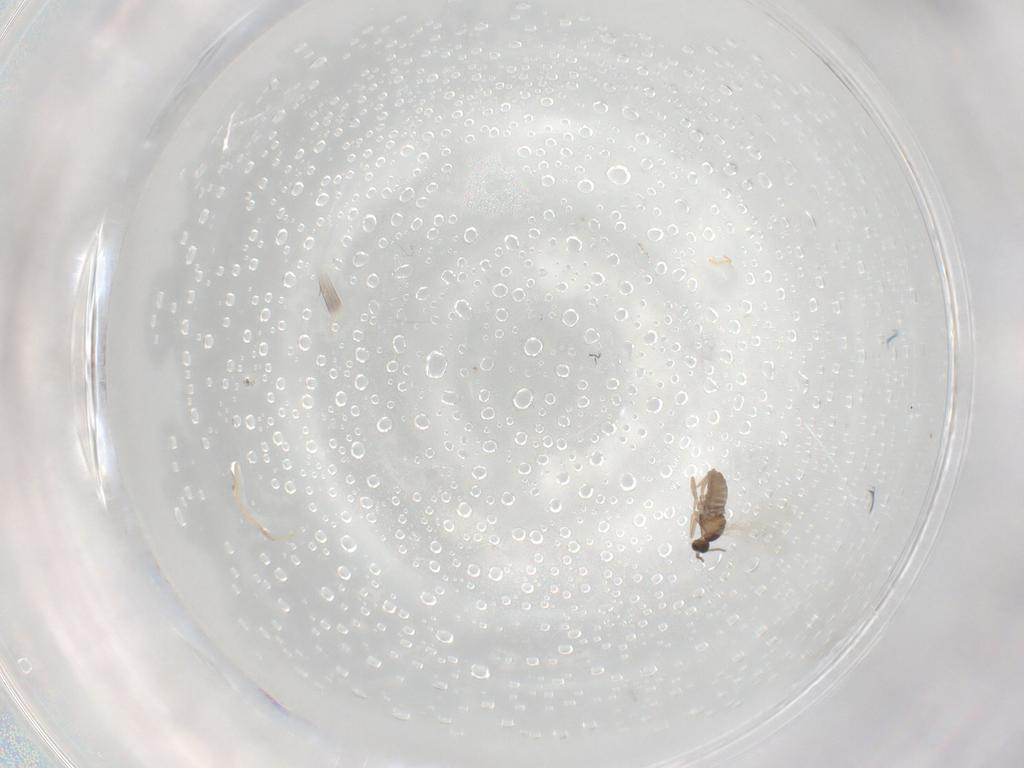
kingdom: Animalia
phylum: Arthropoda
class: Insecta
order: Diptera
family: Cecidomyiidae
